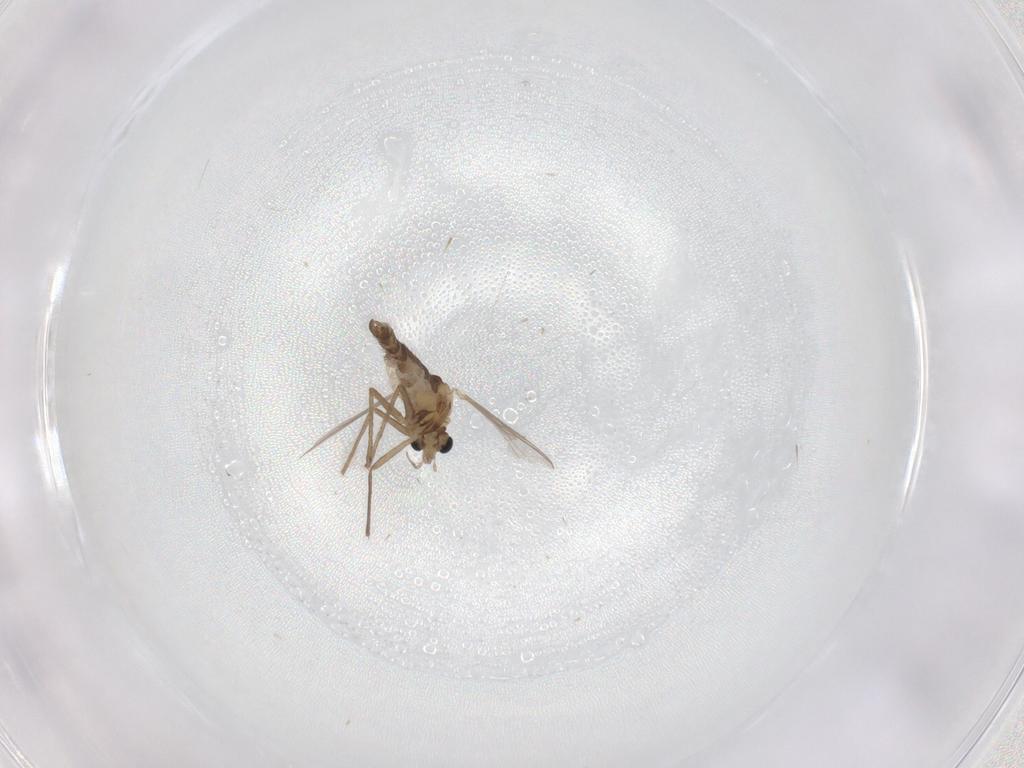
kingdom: Animalia
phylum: Arthropoda
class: Insecta
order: Diptera
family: Chironomidae
